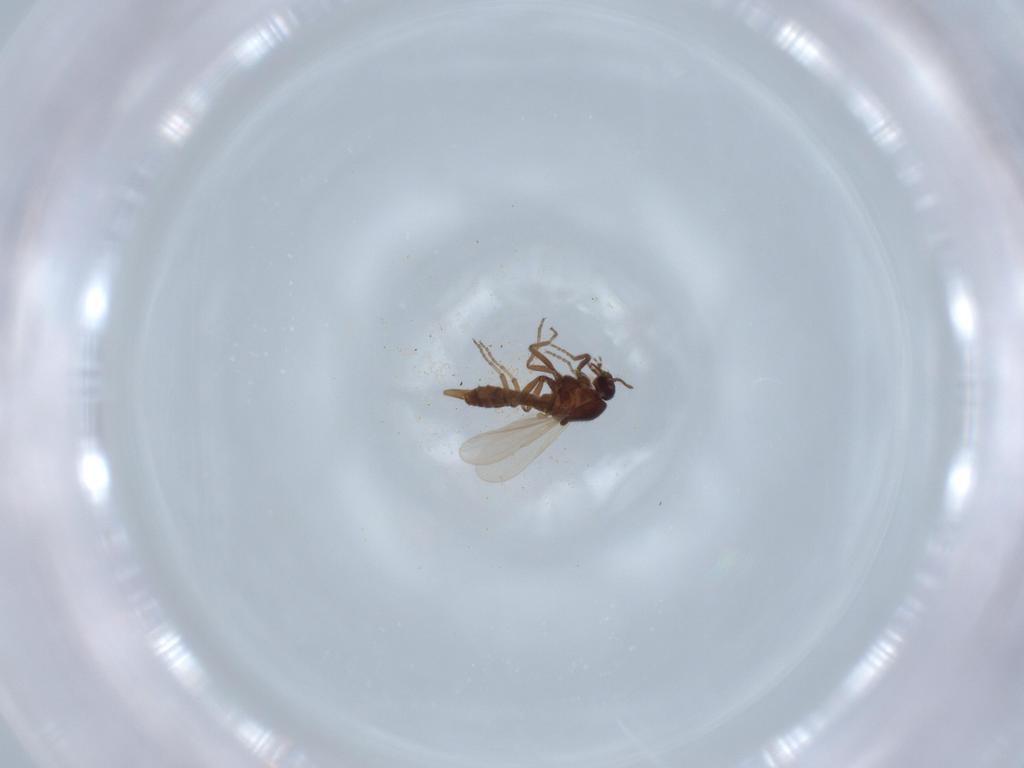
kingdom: Animalia
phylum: Arthropoda
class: Insecta
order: Diptera
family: Ceratopogonidae
